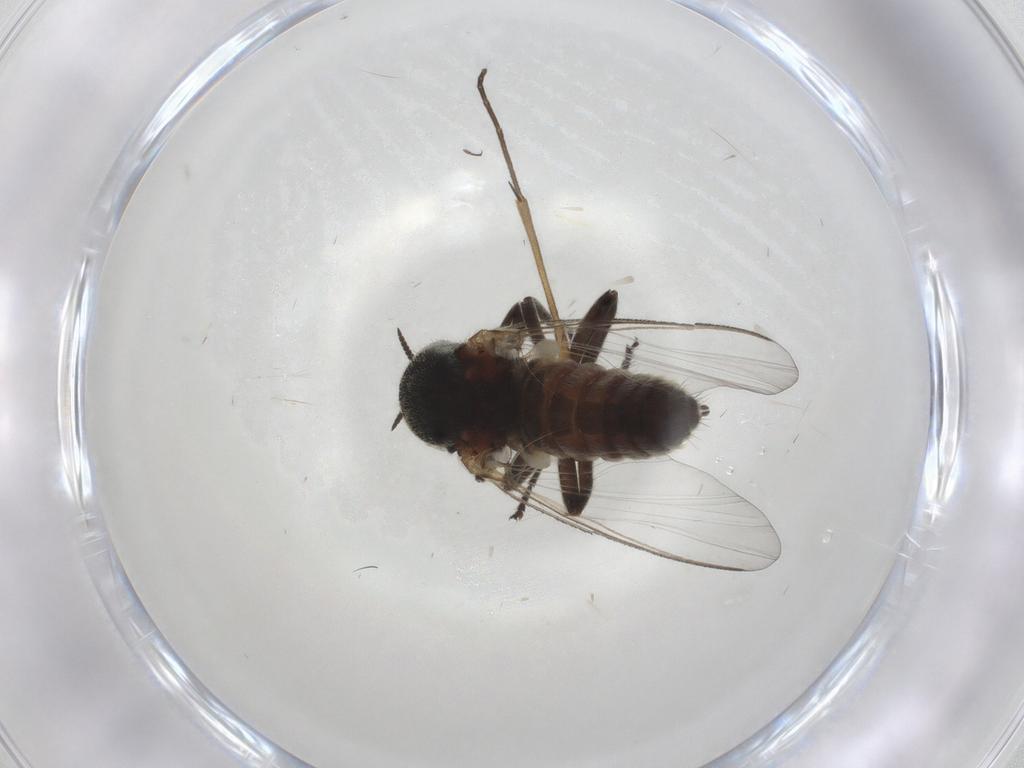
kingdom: Animalia
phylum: Arthropoda
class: Insecta
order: Diptera
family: Mycetophilidae
